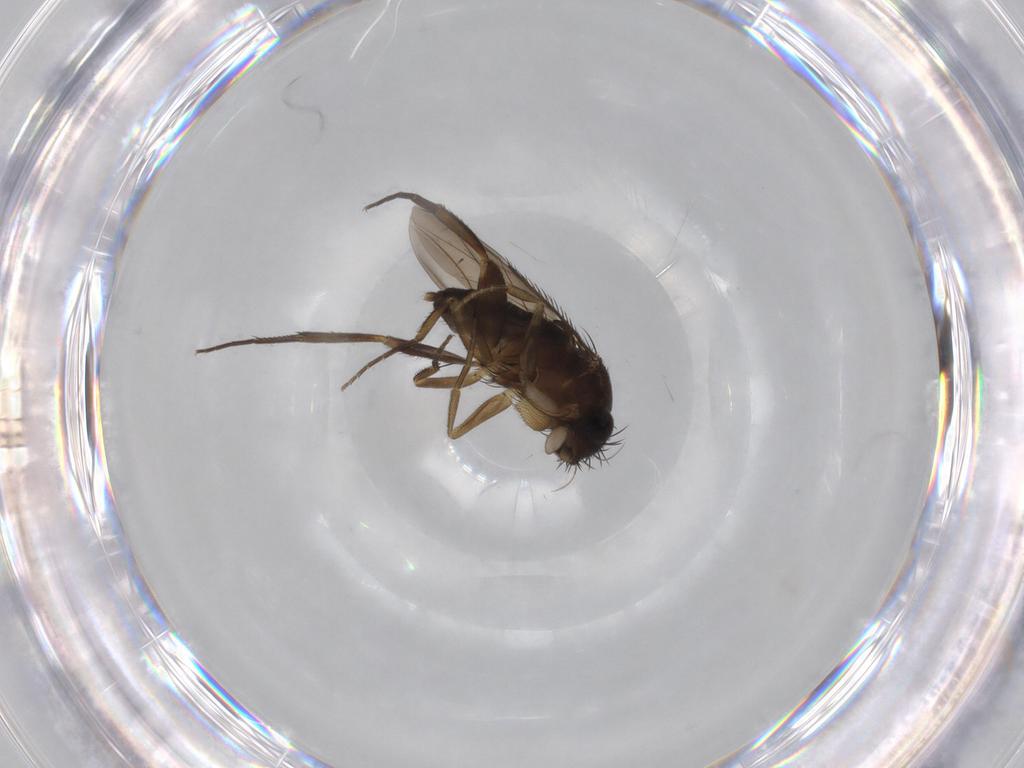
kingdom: Animalia
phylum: Arthropoda
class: Insecta
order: Diptera
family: Phoridae
